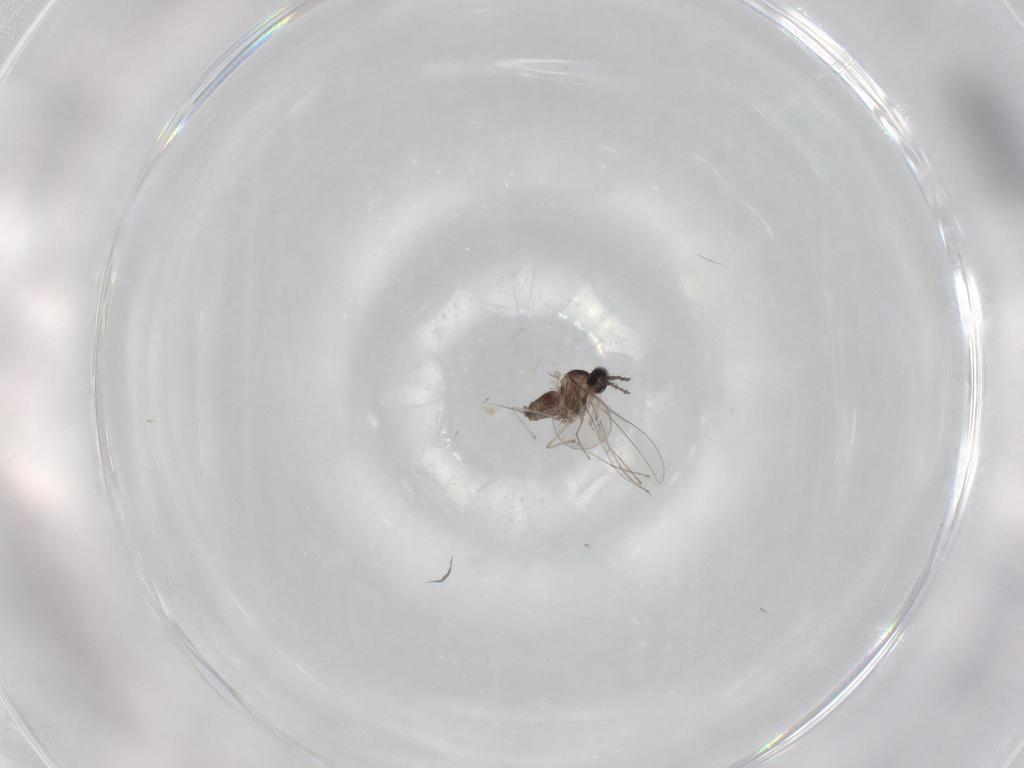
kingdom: Animalia
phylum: Arthropoda
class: Insecta
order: Diptera
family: Cecidomyiidae
